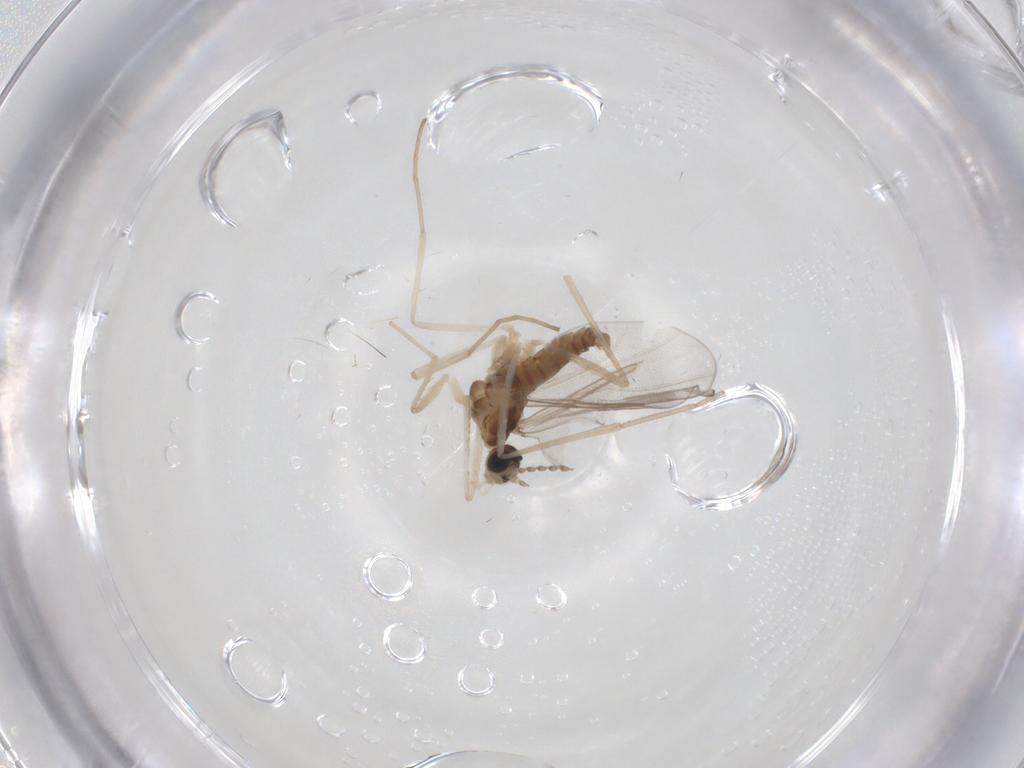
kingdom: Animalia
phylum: Arthropoda
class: Insecta
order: Diptera
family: Cecidomyiidae
